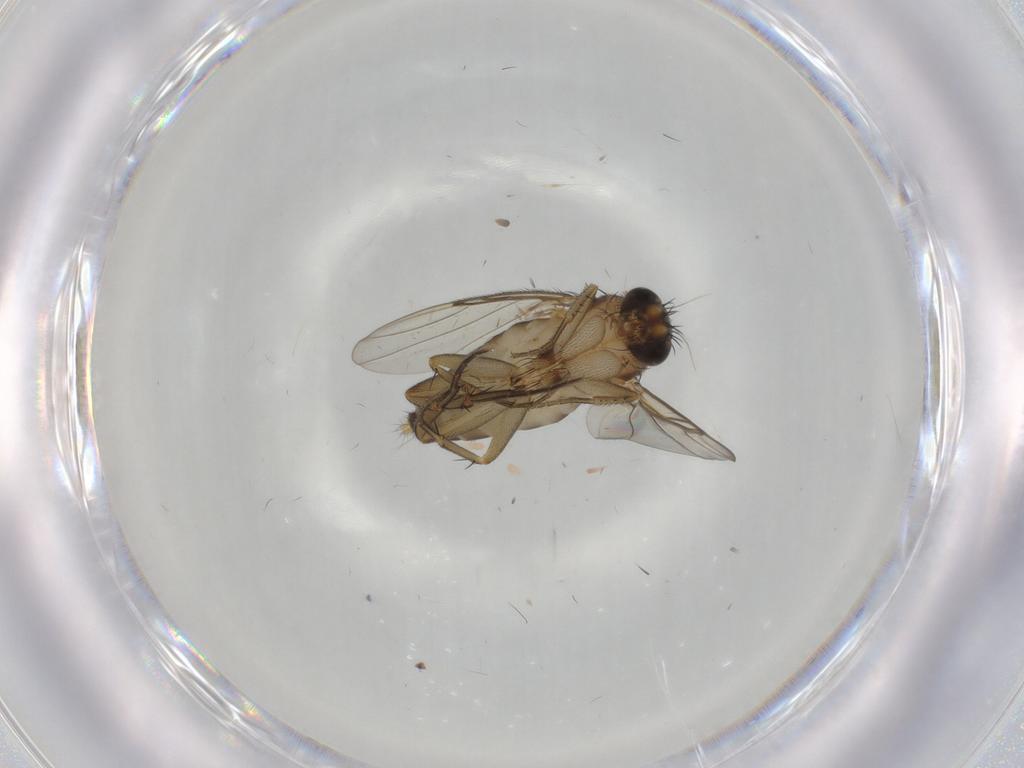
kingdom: Animalia
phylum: Arthropoda
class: Insecta
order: Diptera
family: Phoridae
